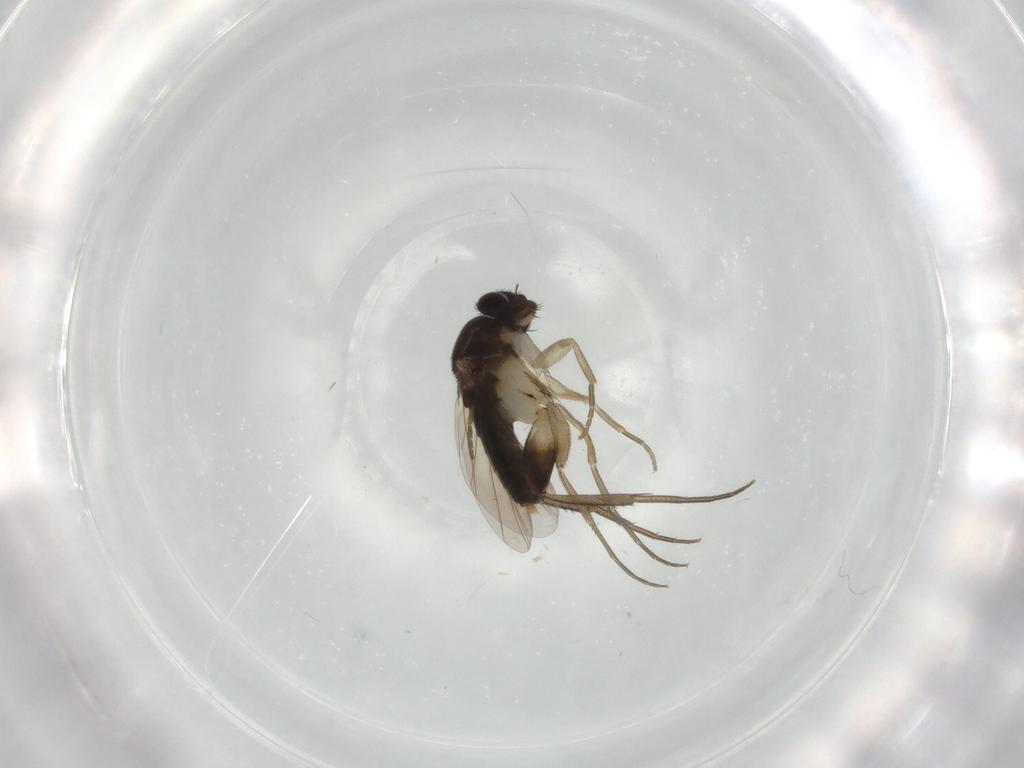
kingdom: Animalia
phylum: Arthropoda
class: Insecta
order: Diptera
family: Phoridae
